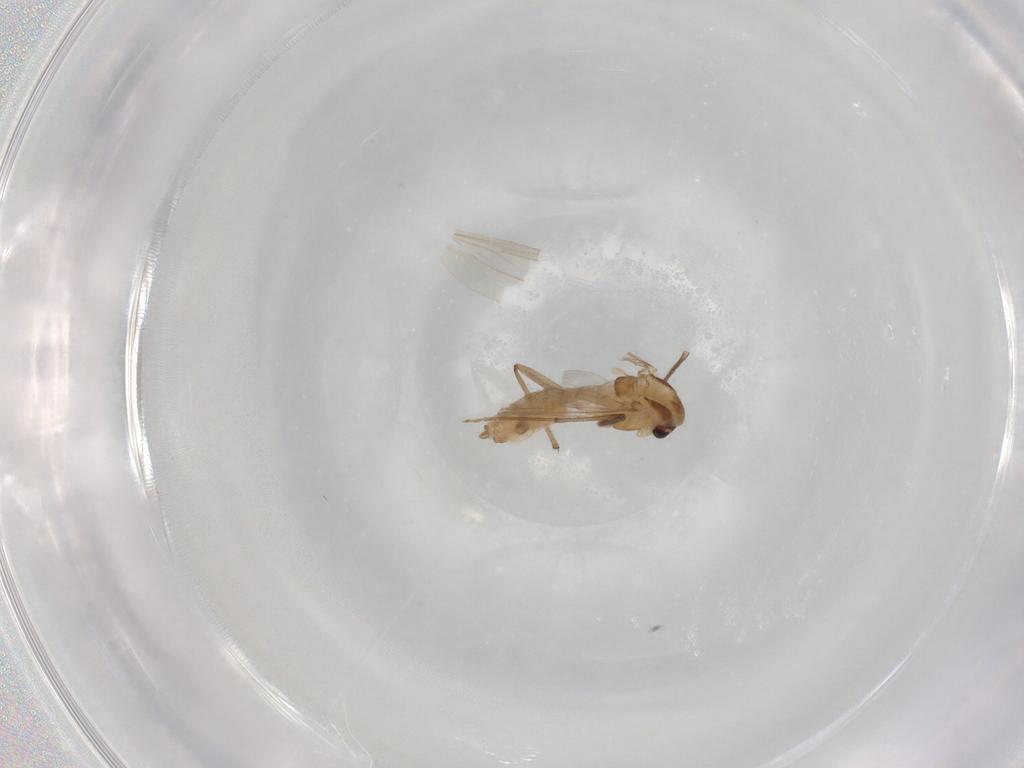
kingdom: Animalia
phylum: Arthropoda
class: Insecta
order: Diptera
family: Chironomidae
